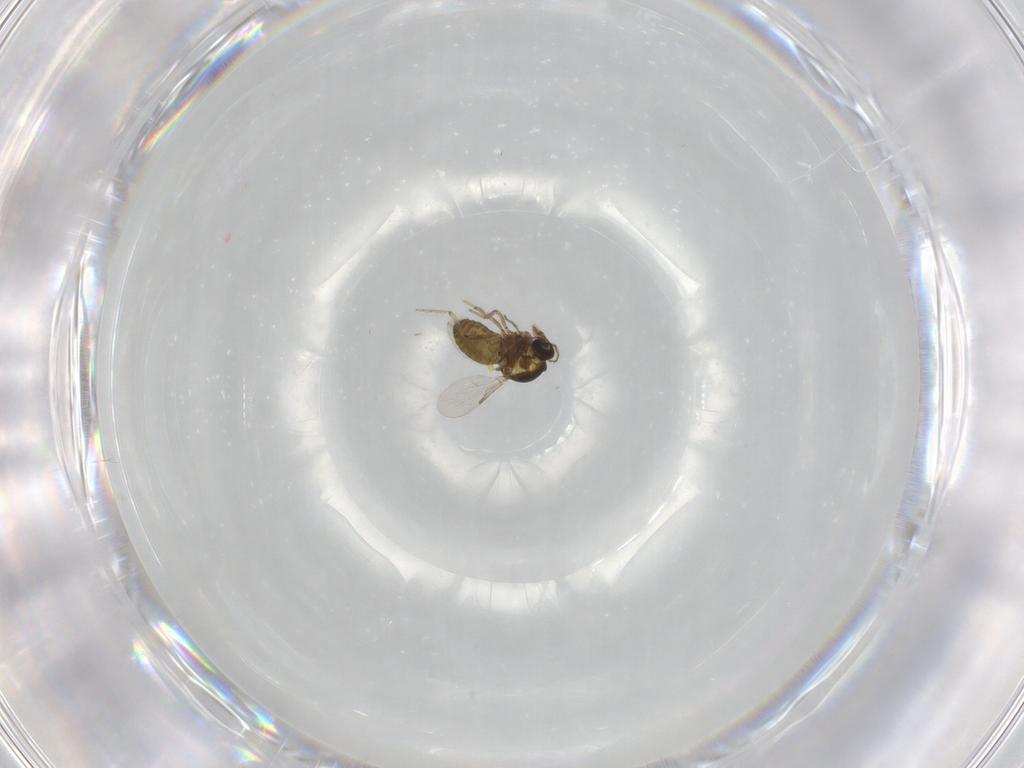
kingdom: Animalia
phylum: Arthropoda
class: Insecta
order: Diptera
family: Ceratopogonidae
